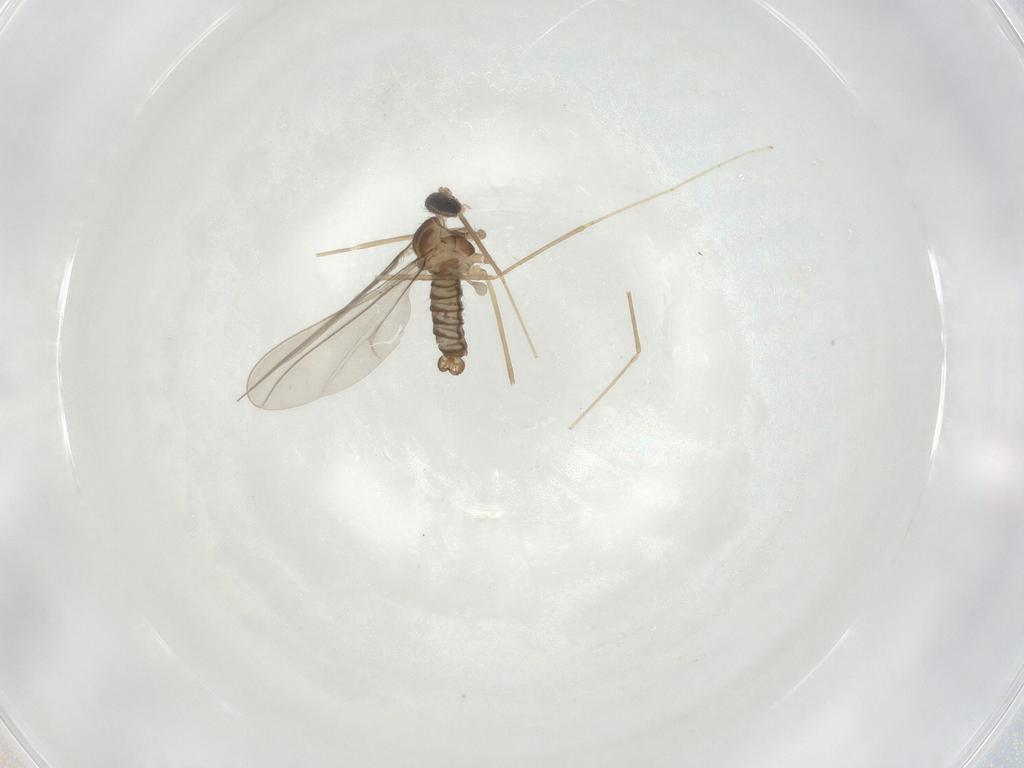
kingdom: Animalia
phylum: Arthropoda
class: Insecta
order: Diptera
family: Cecidomyiidae
